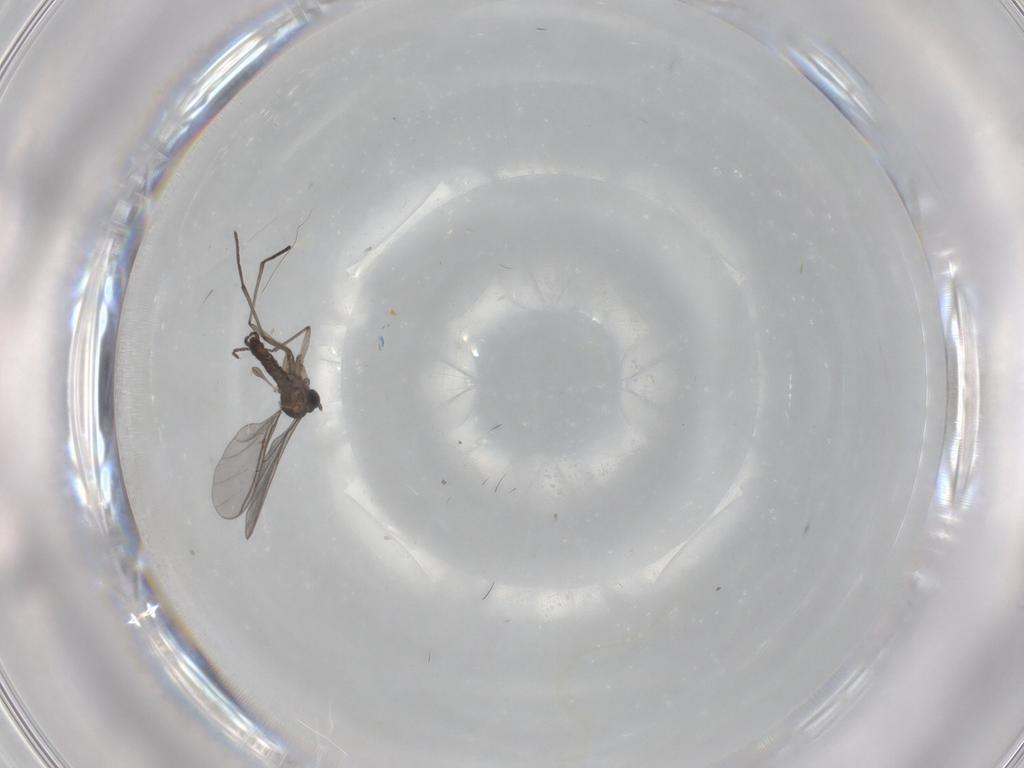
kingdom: Animalia
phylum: Arthropoda
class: Insecta
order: Diptera
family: Sciaridae
